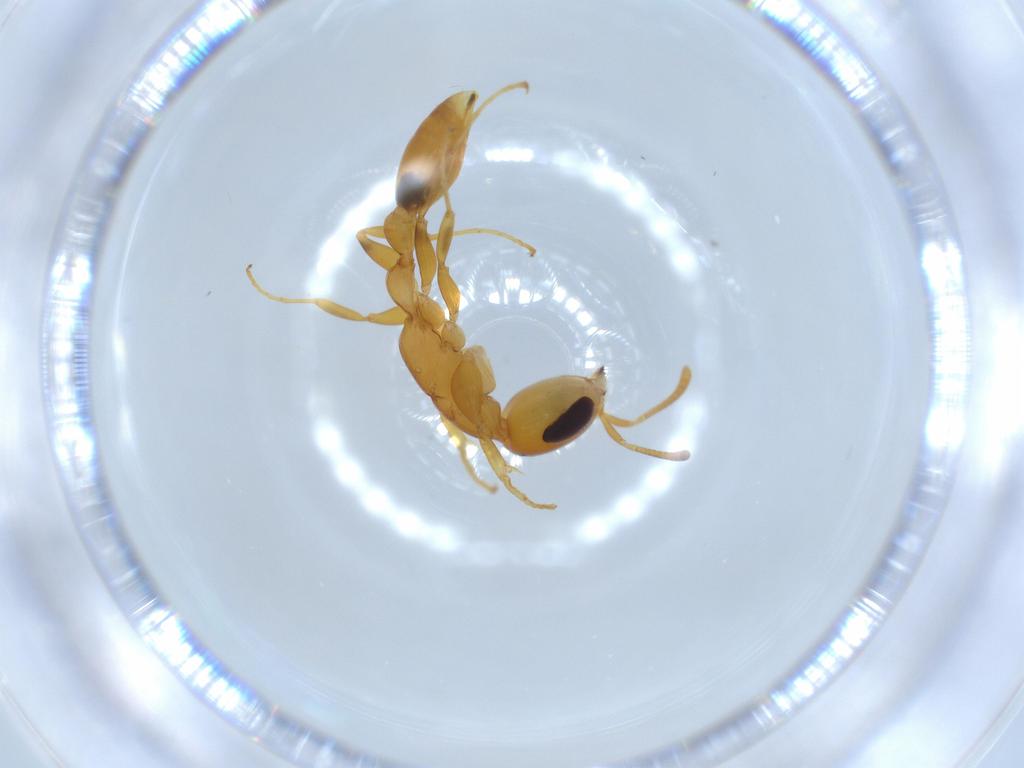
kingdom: Animalia
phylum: Arthropoda
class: Insecta
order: Hymenoptera
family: Formicidae
